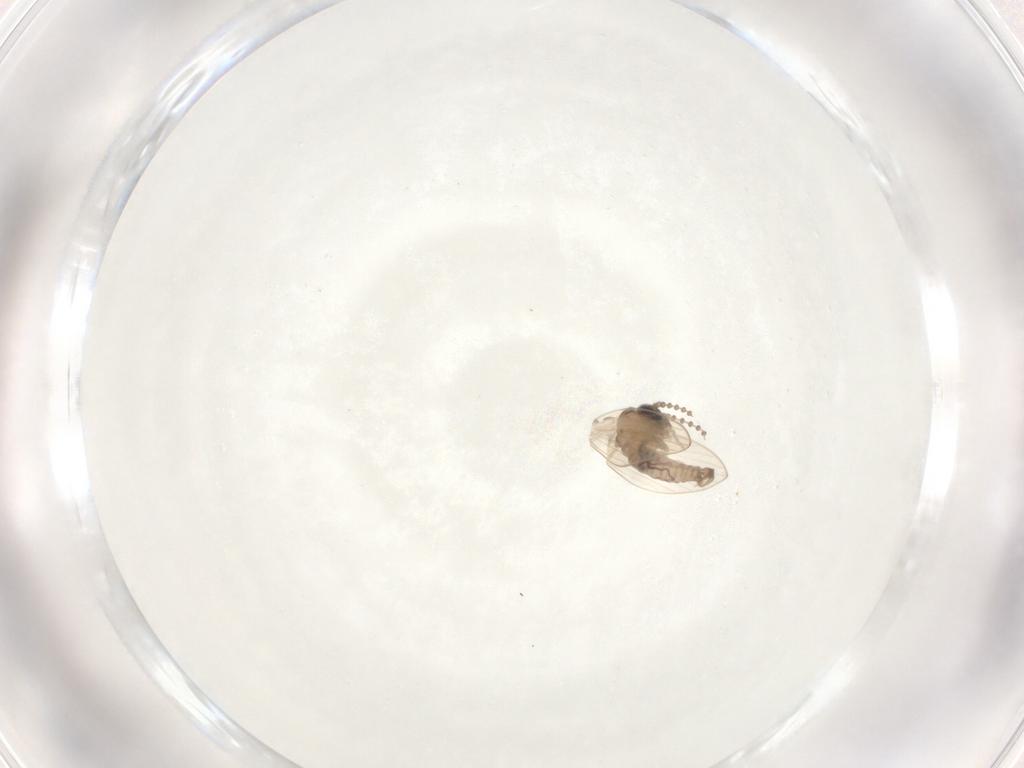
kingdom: Animalia
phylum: Arthropoda
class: Insecta
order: Diptera
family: Psychodidae
